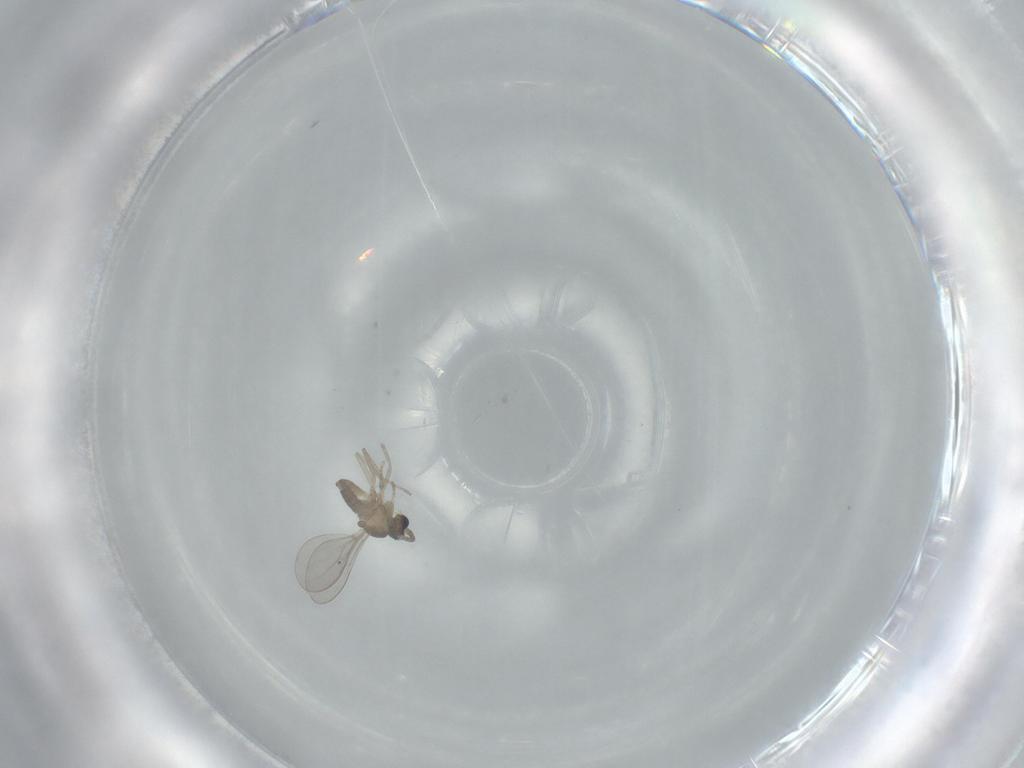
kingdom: Animalia
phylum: Arthropoda
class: Insecta
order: Diptera
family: Cecidomyiidae
